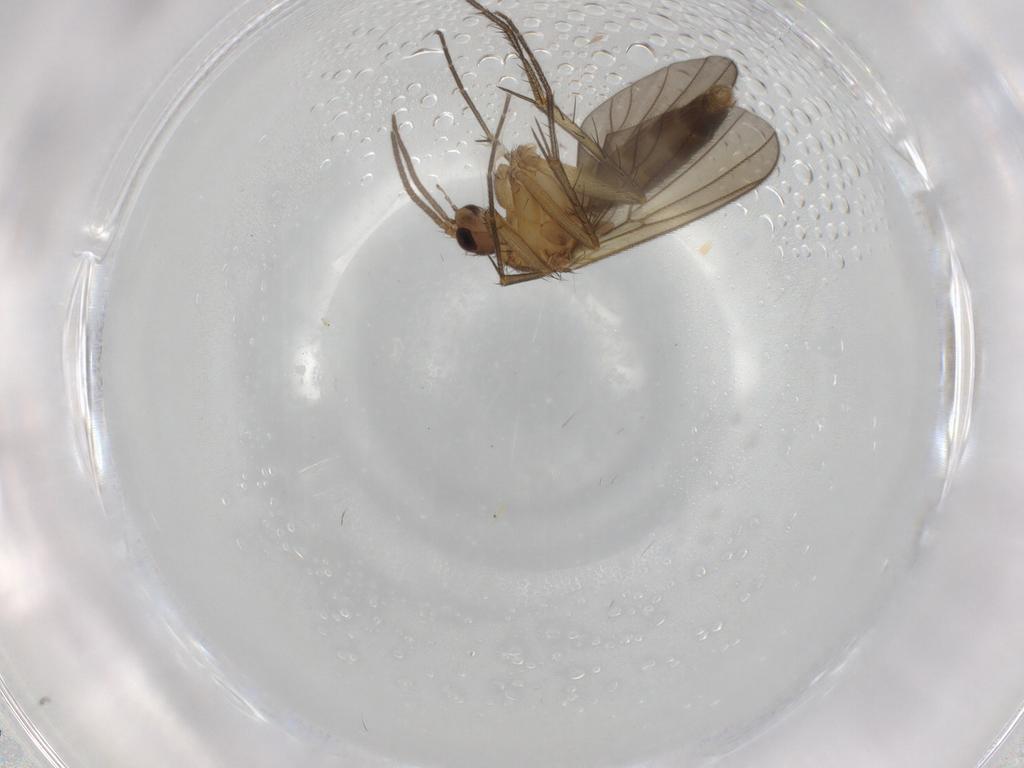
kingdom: Animalia
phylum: Arthropoda
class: Insecta
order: Diptera
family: Mycetophilidae
